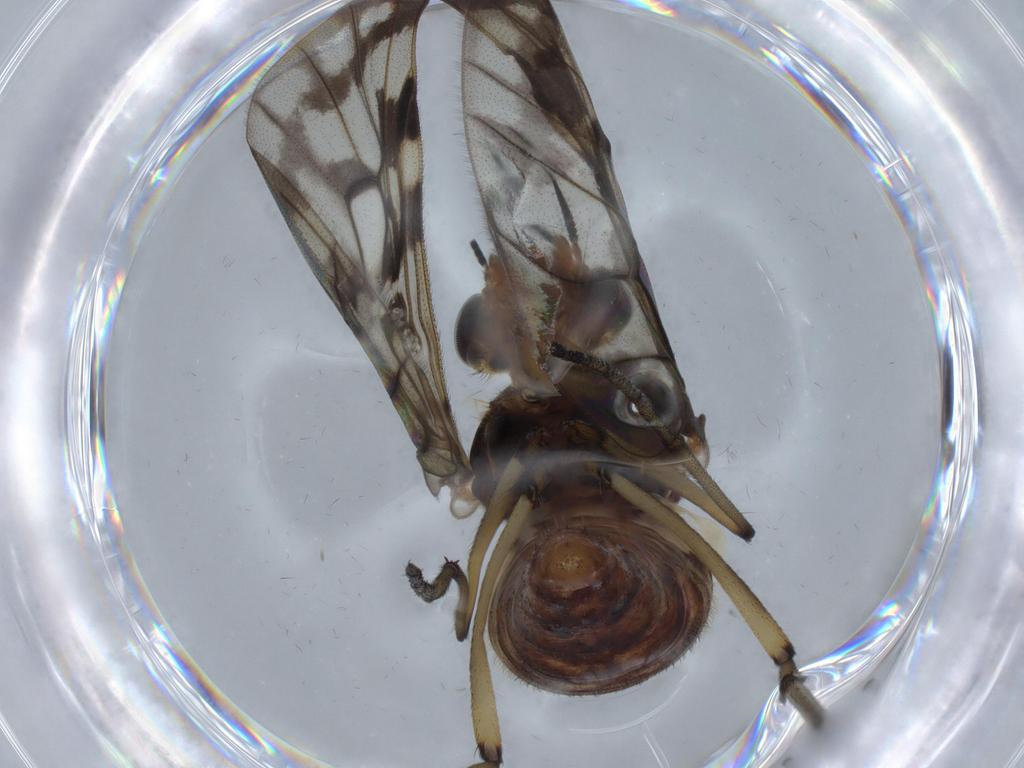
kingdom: Animalia
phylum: Arthropoda
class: Insecta
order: Diptera
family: Anisopodidae
